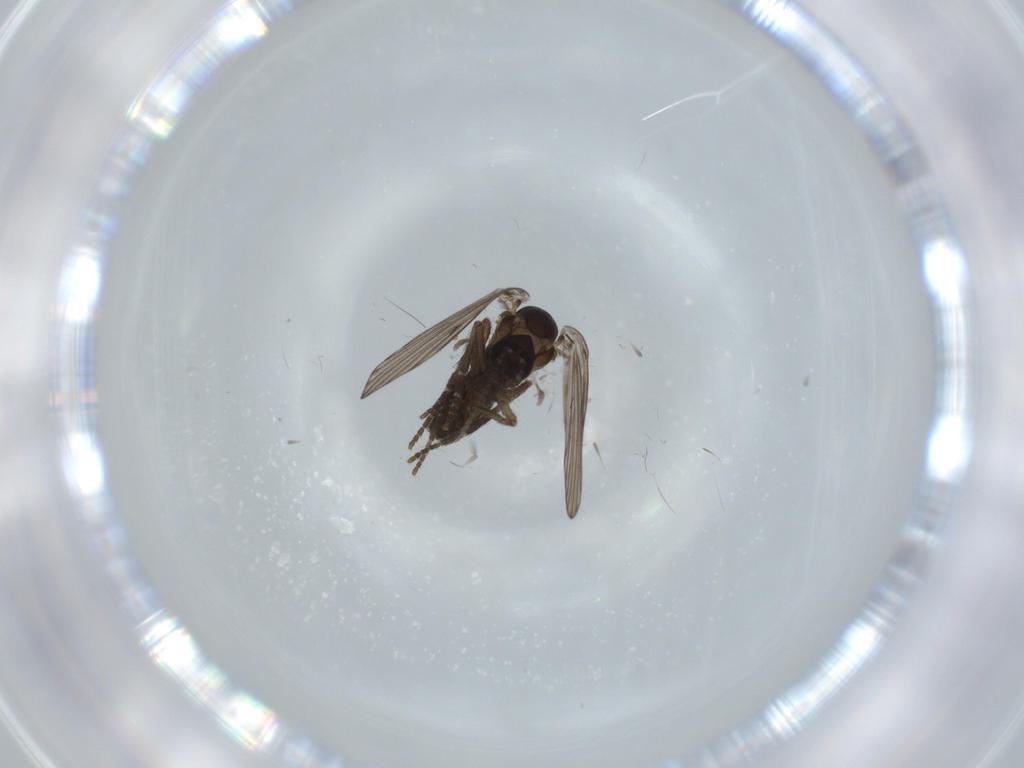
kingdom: Animalia
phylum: Arthropoda
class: Insecta
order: Diptera
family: Psychodidae
